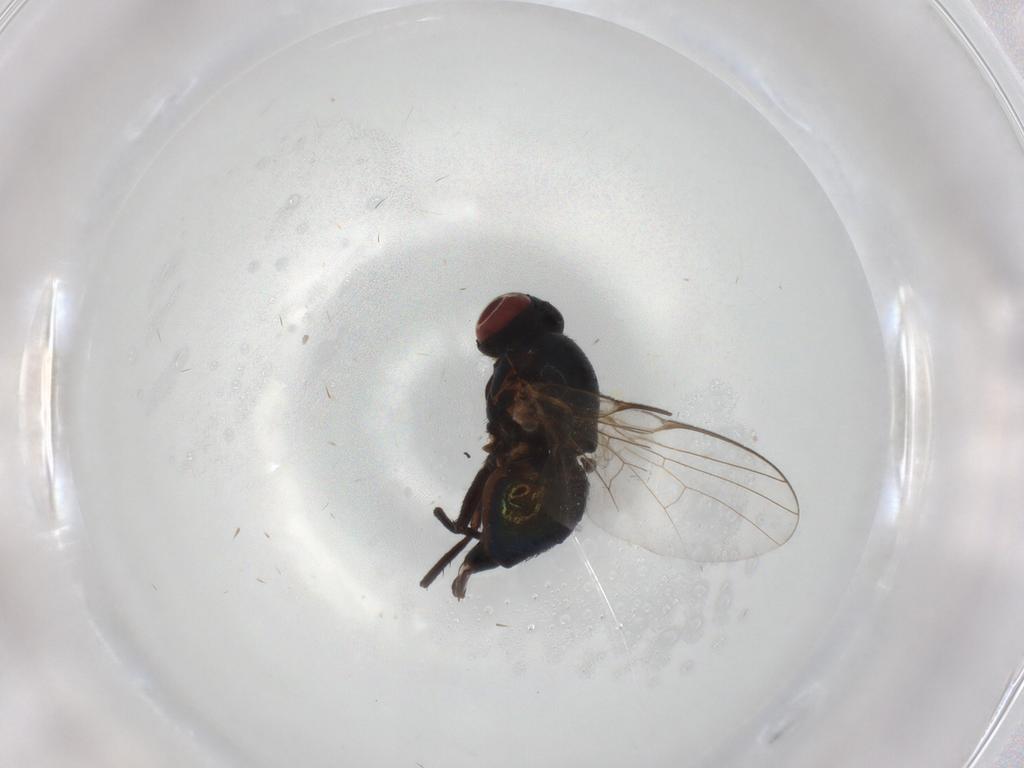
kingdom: Animalia
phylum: Arthropoda
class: Insecta
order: Diptera
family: Agromyzidae
